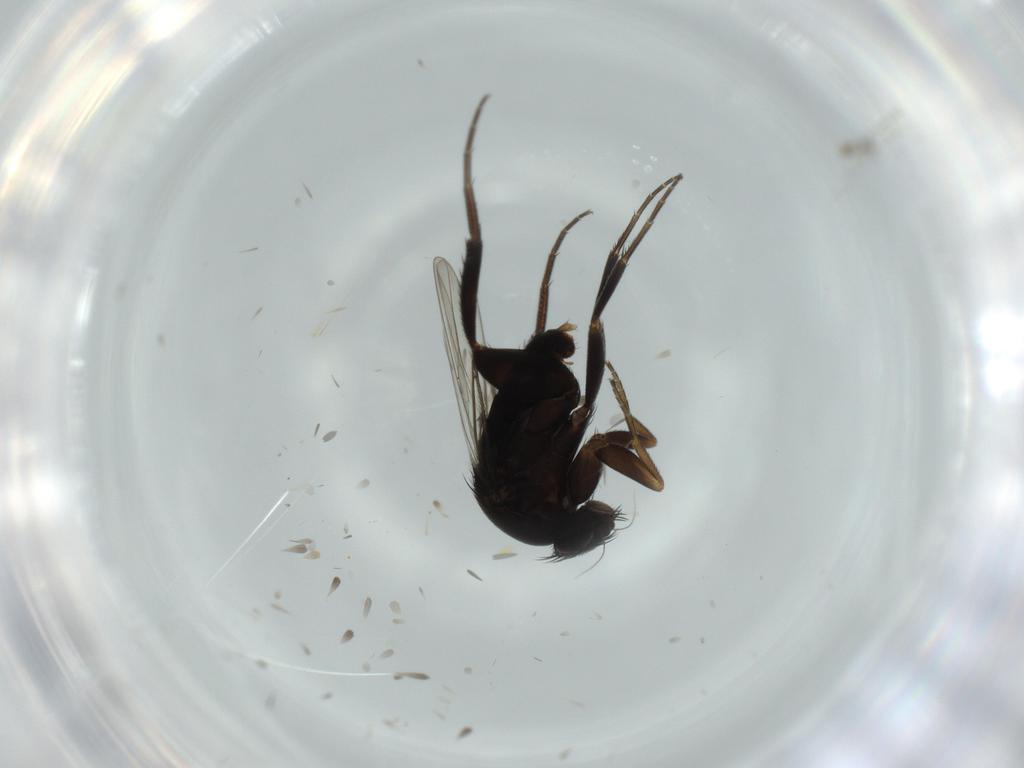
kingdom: Animalia
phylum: Arthropoda
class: Insecta
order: Diptera
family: Phoridae
